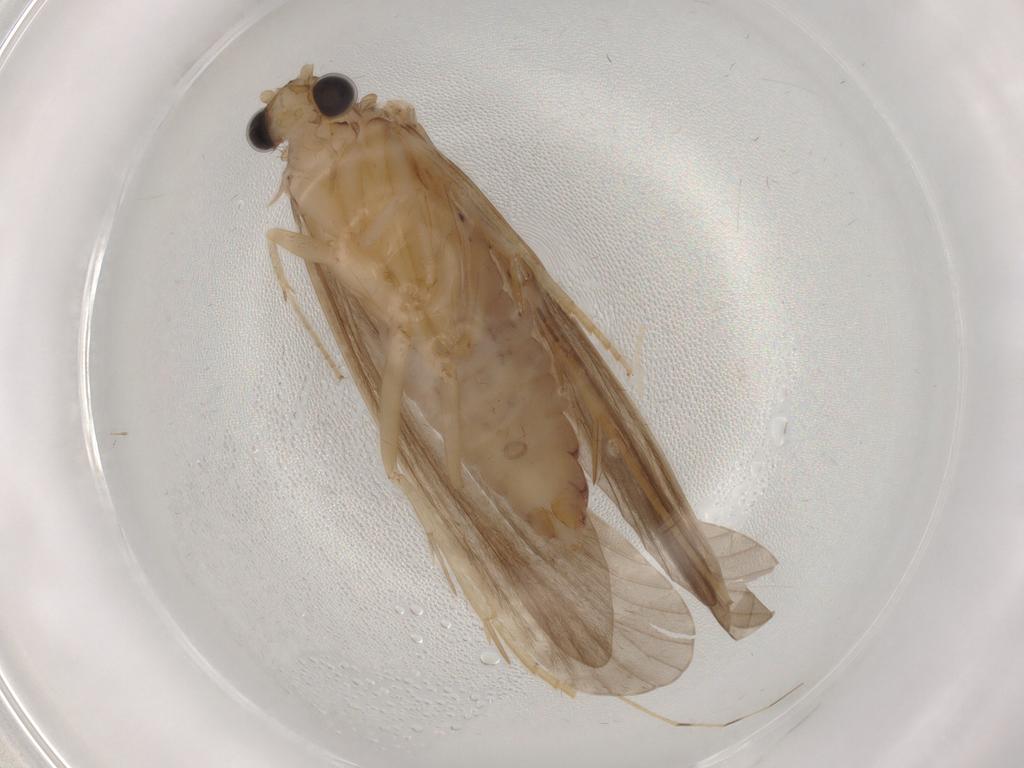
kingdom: Animalia
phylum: Arthropoda
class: Insecta
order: Trichoptera
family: Ecnomidae
